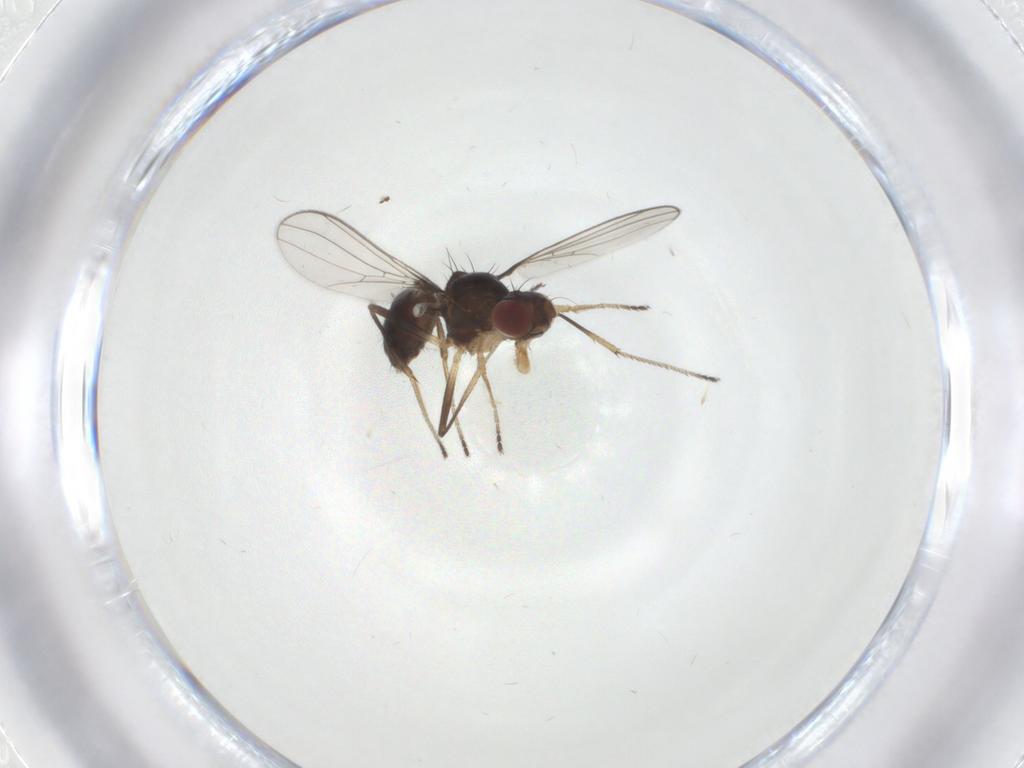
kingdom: Animalia
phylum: Arthropoda
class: Insecta
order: Diptera
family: Sepsidae
